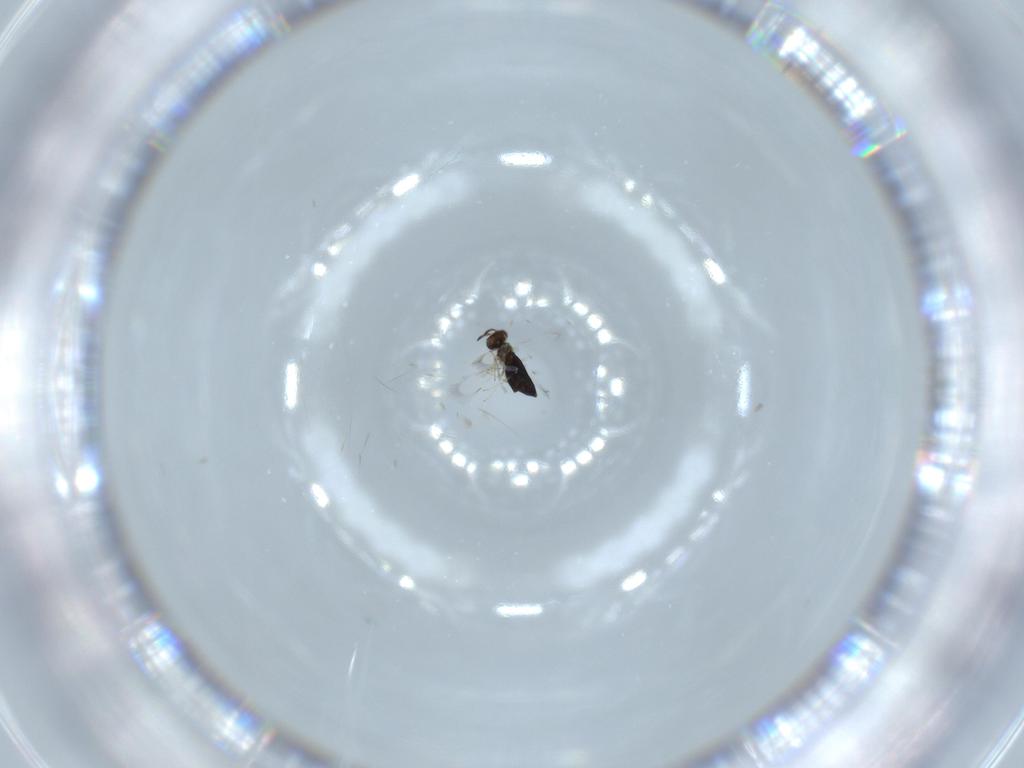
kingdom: Animalia
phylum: Arthropoda
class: Insecta
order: Hymenoptera
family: Signiphoridae
